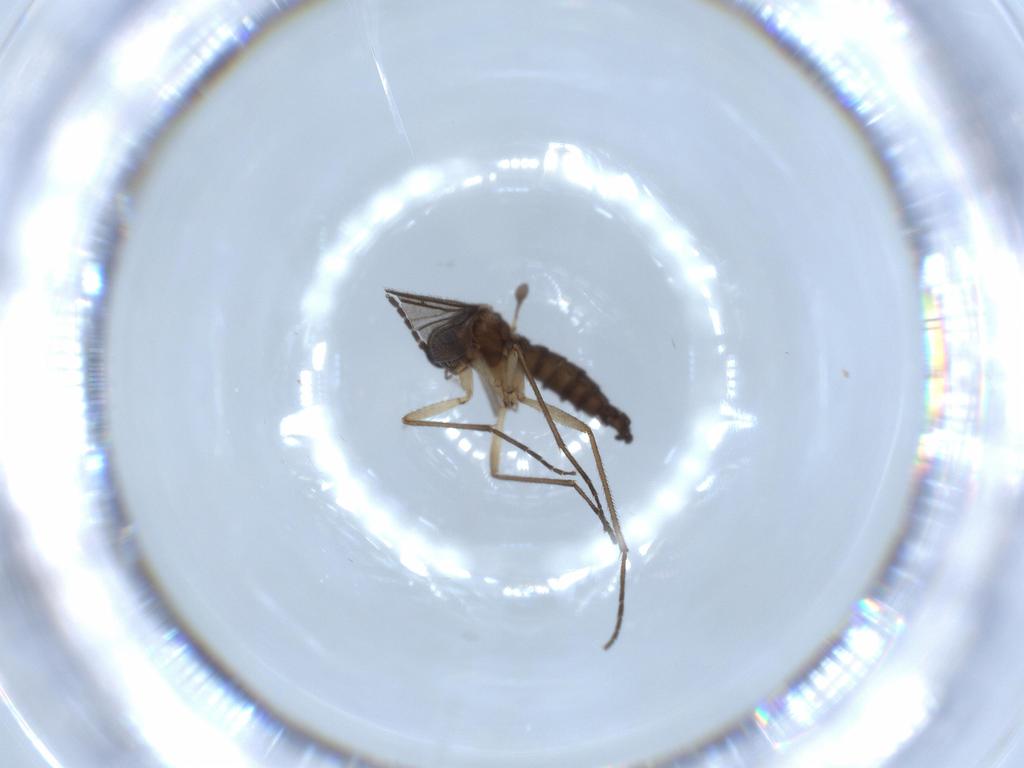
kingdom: Animalia
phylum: Arthropoda
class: Insecta
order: Diptera
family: Sciaridae
